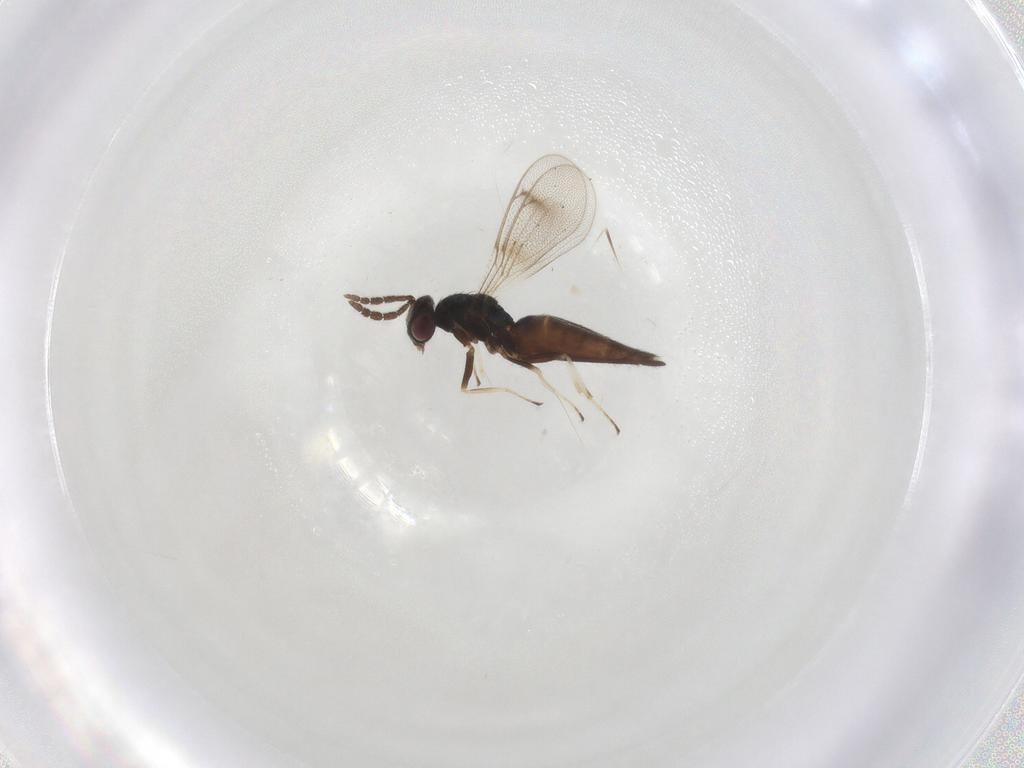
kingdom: Animalia
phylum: Arthropoda
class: Insecta
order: Hymenoptera
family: Eulophidae
